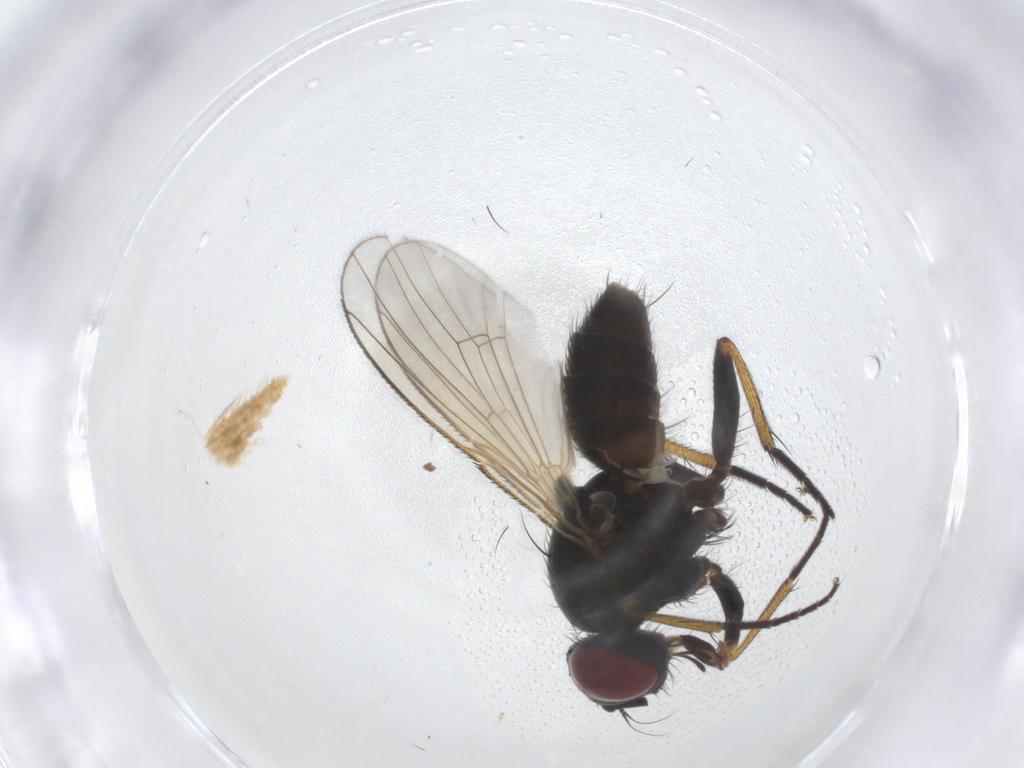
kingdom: Animalia
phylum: Arthropoda
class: Insecta
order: Diptera
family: Agromyzidae
